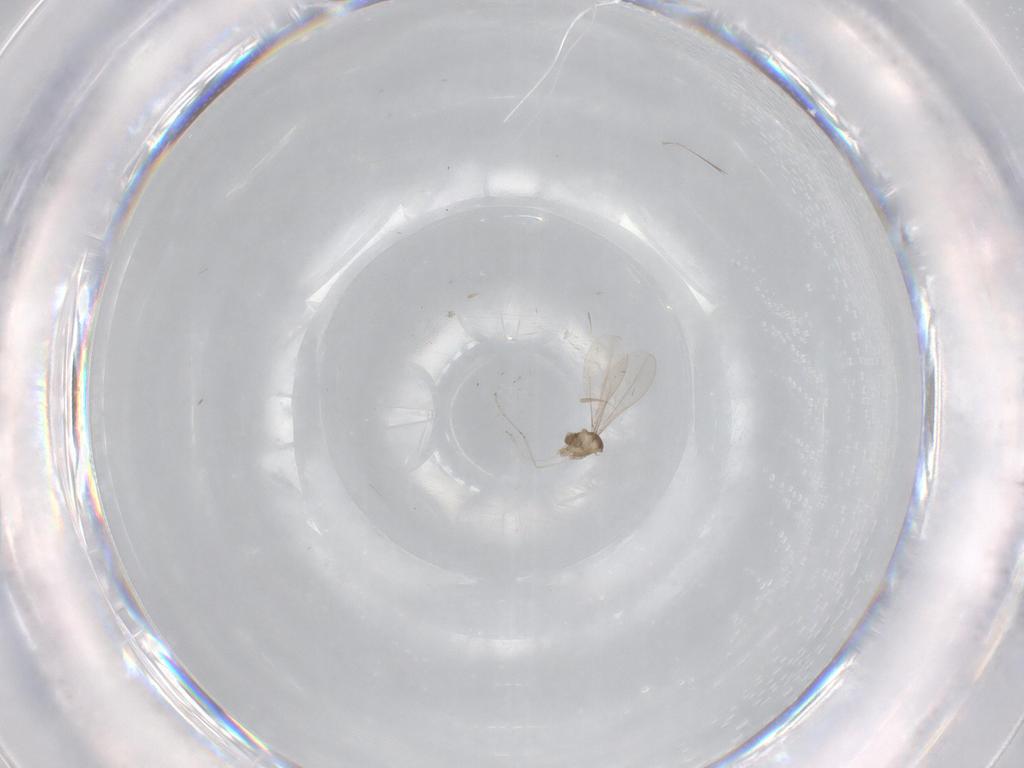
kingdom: Animalia
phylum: Arthropoda
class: Insecta
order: Diptera
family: Cecidomyiidae
